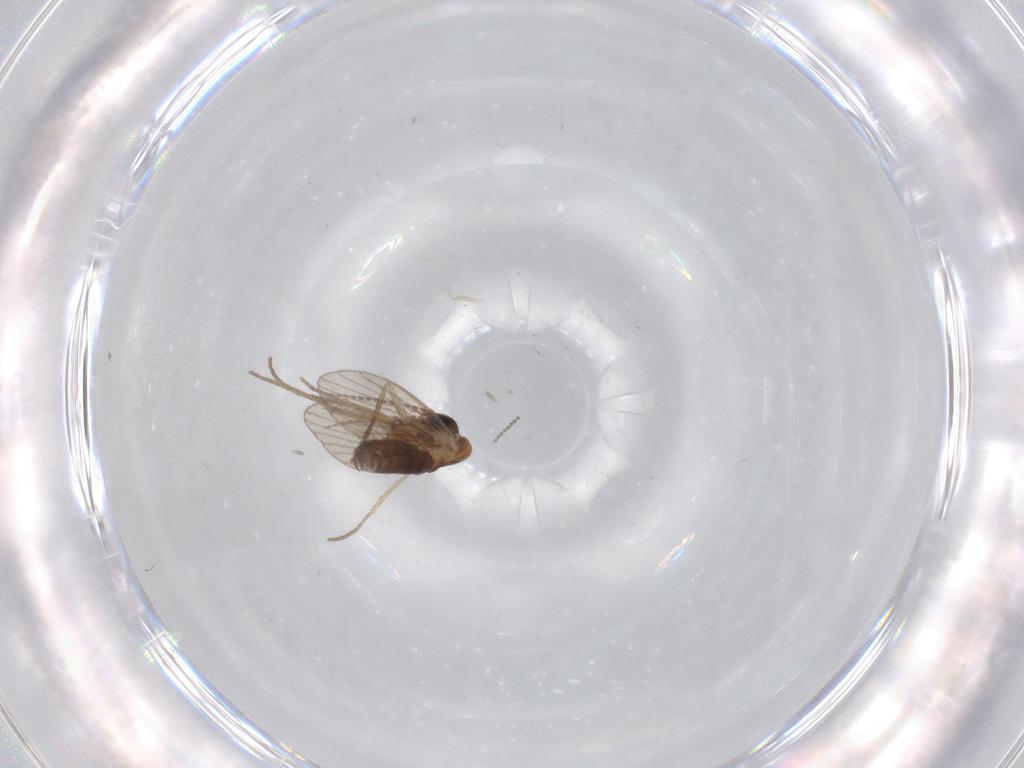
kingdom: Animalia
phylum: Arthropoda
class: Insecta
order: Diptera
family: Cecidomyiidae
